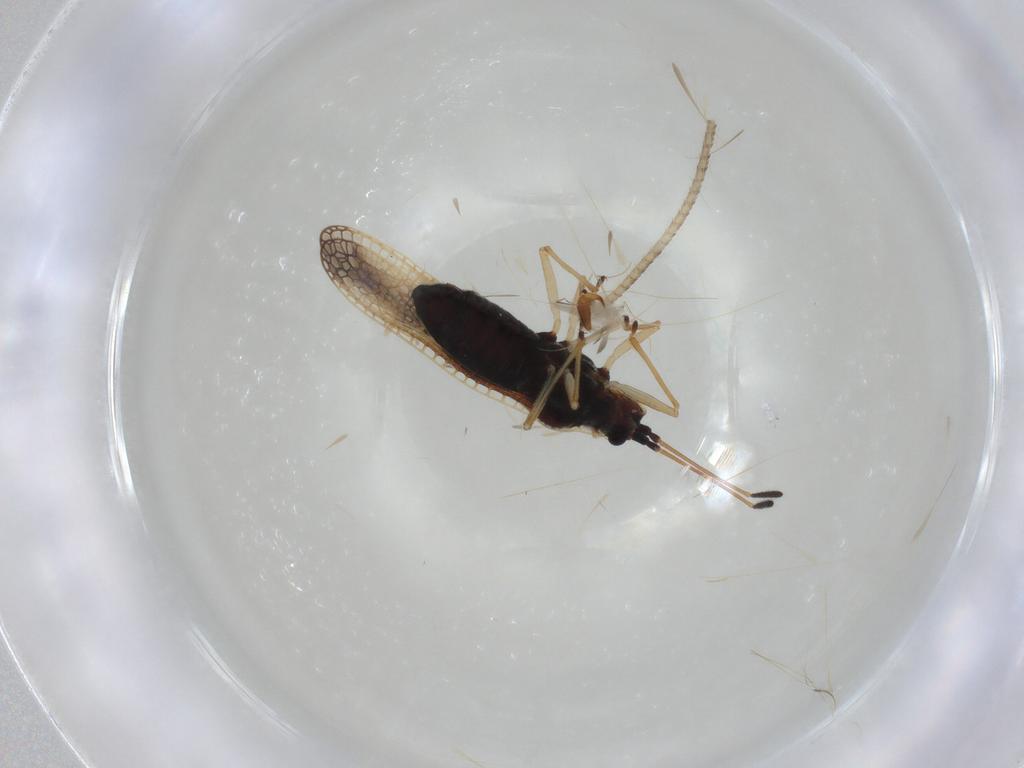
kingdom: Animalia
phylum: Arthropoda
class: Insecta
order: Hemiptera
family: Tingidae
